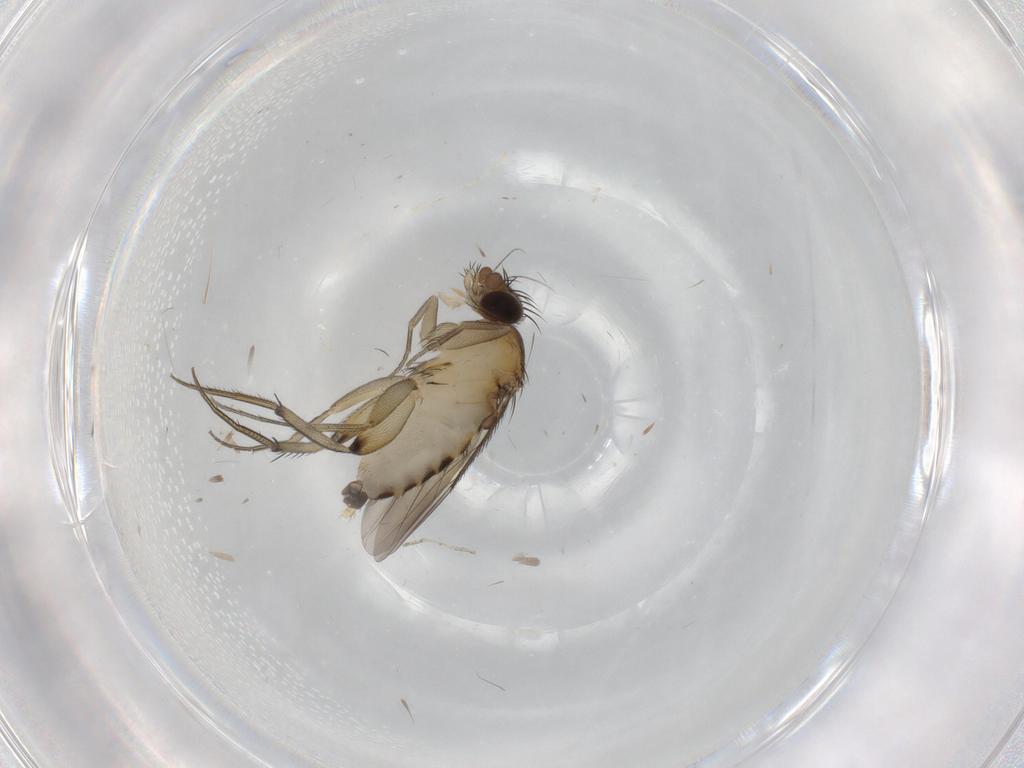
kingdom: Animalia
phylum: Arthropoda
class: Insecta
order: Diptera
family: Phoridae
